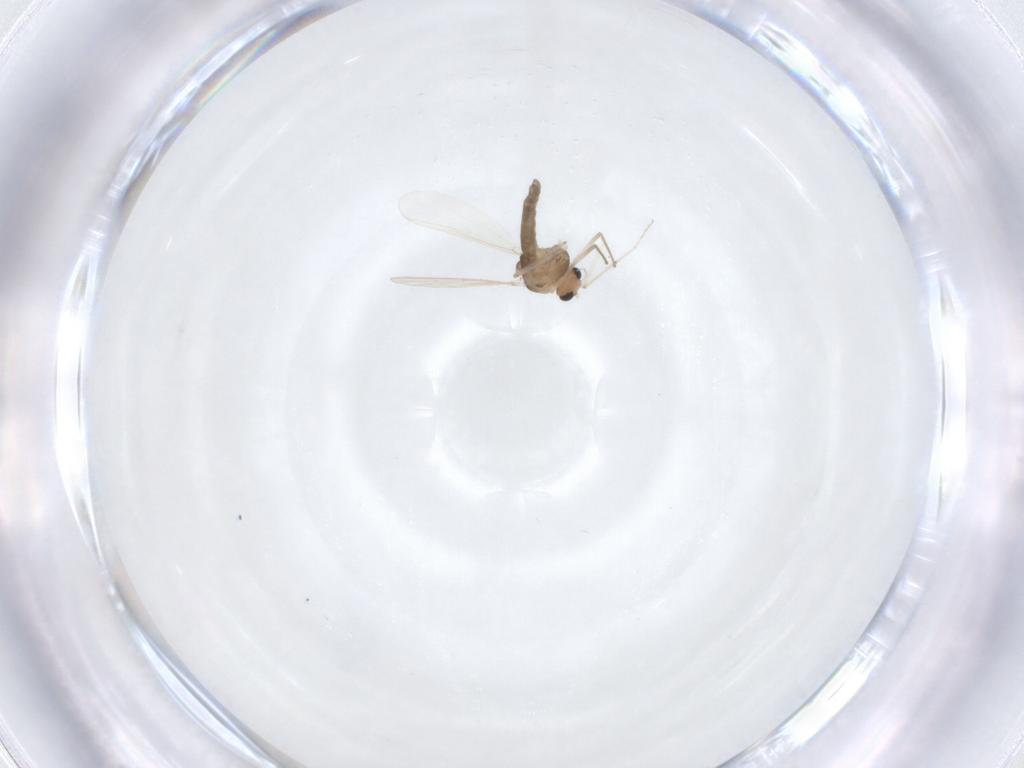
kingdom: Animalia
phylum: Arthropoda
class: Insecta
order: Diptera
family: Chironomidae
